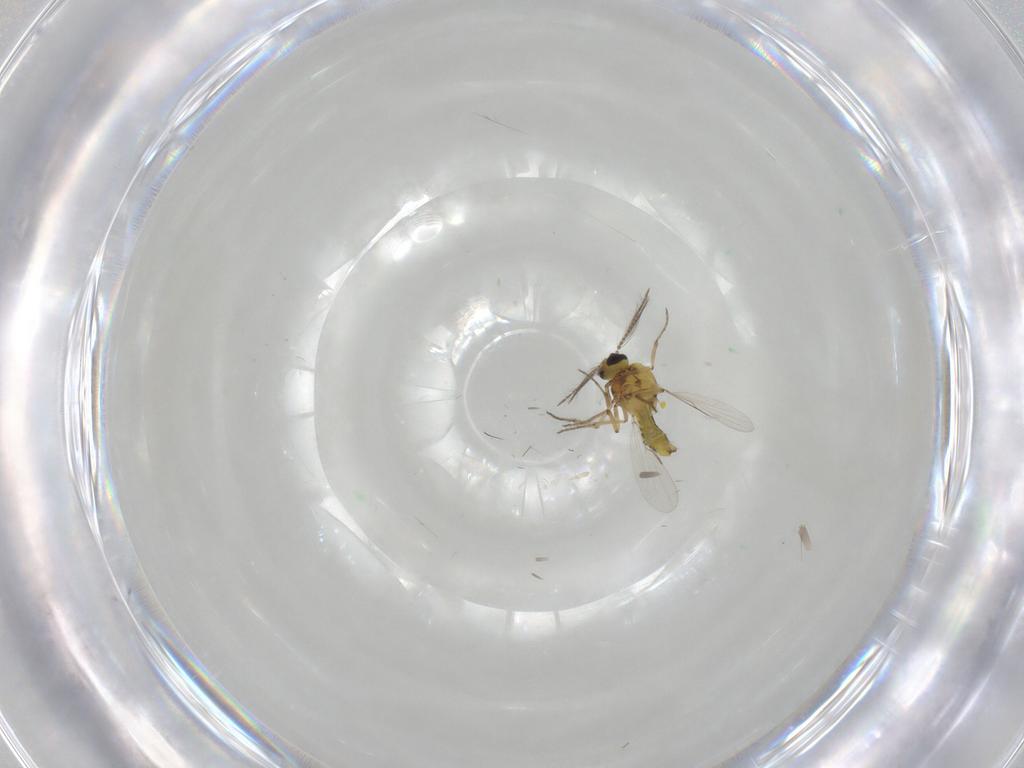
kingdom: Animalia
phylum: Arthropoda
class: Insecta
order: Diptera
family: Ceratopogonidae
